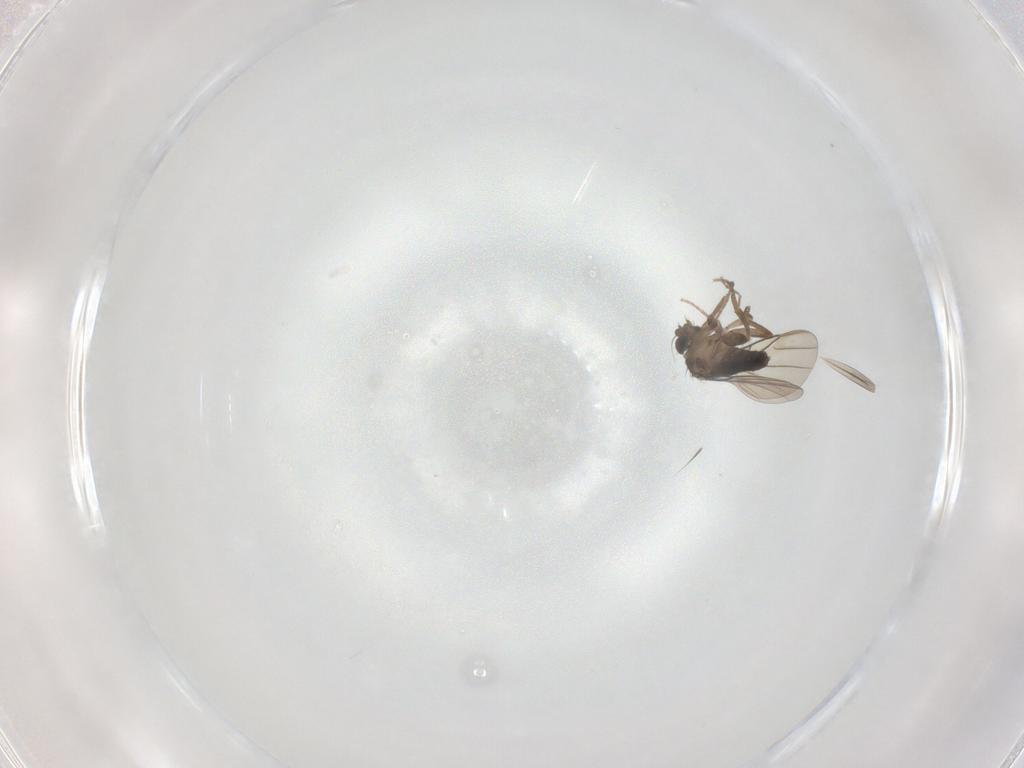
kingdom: Animalia
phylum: Arthropoda
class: Insecta
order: Diptera
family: Phoridae
